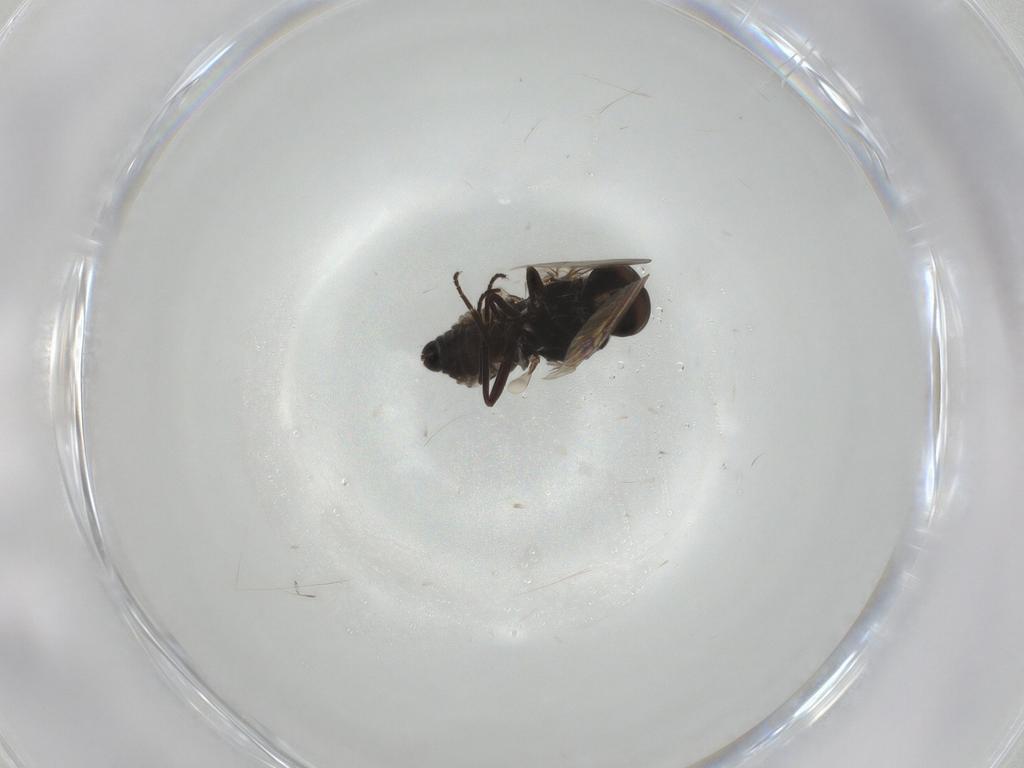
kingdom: Animalia
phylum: Arthropoda
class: Insecta
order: Diptera
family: Scenopinidae
